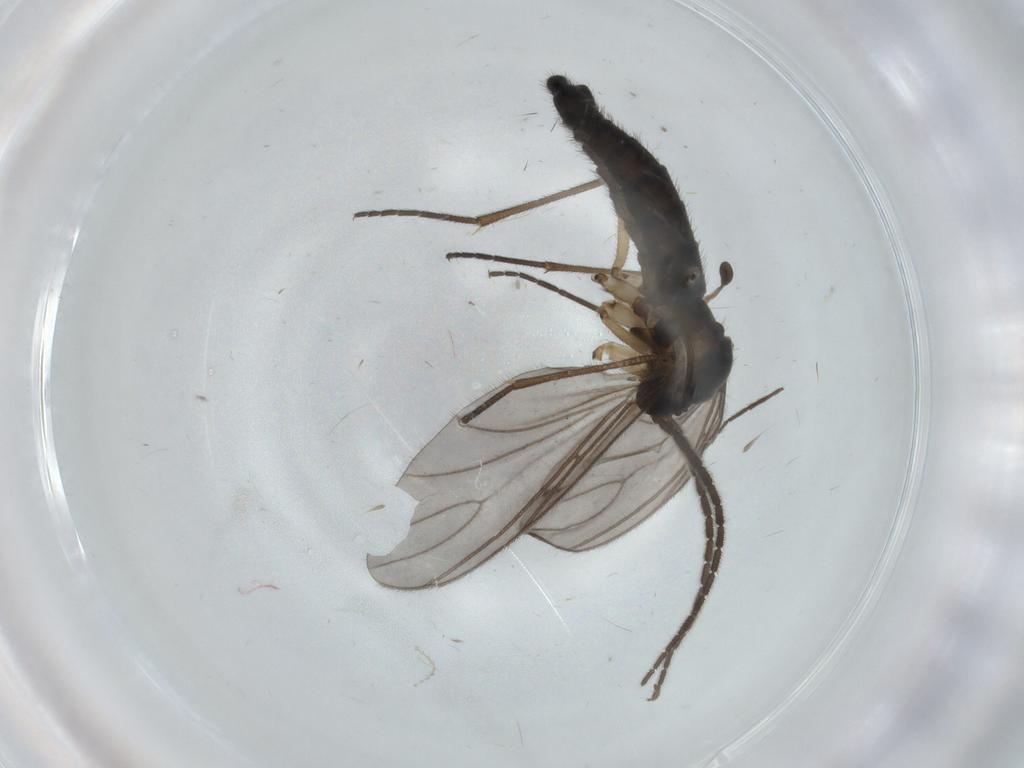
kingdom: Animalia
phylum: Arthropoda
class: Insecta
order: Diptera
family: Sciaridae
